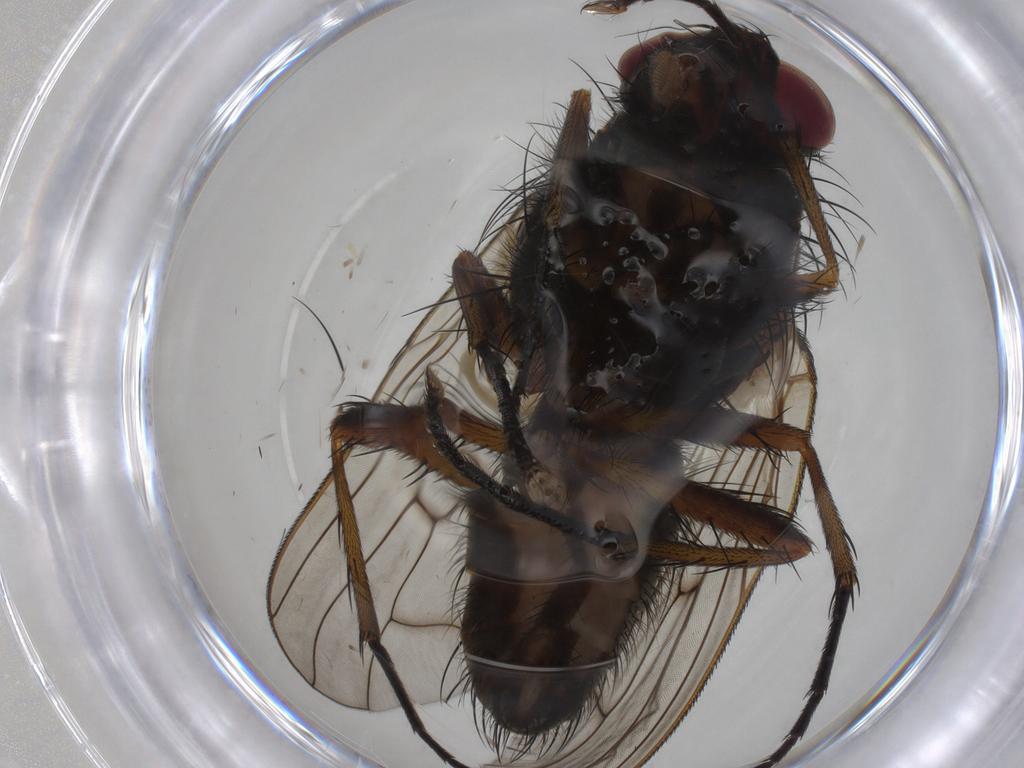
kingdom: Animalia
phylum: Arthropoda
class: Insecta
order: Diptera
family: Anthomyiidae
